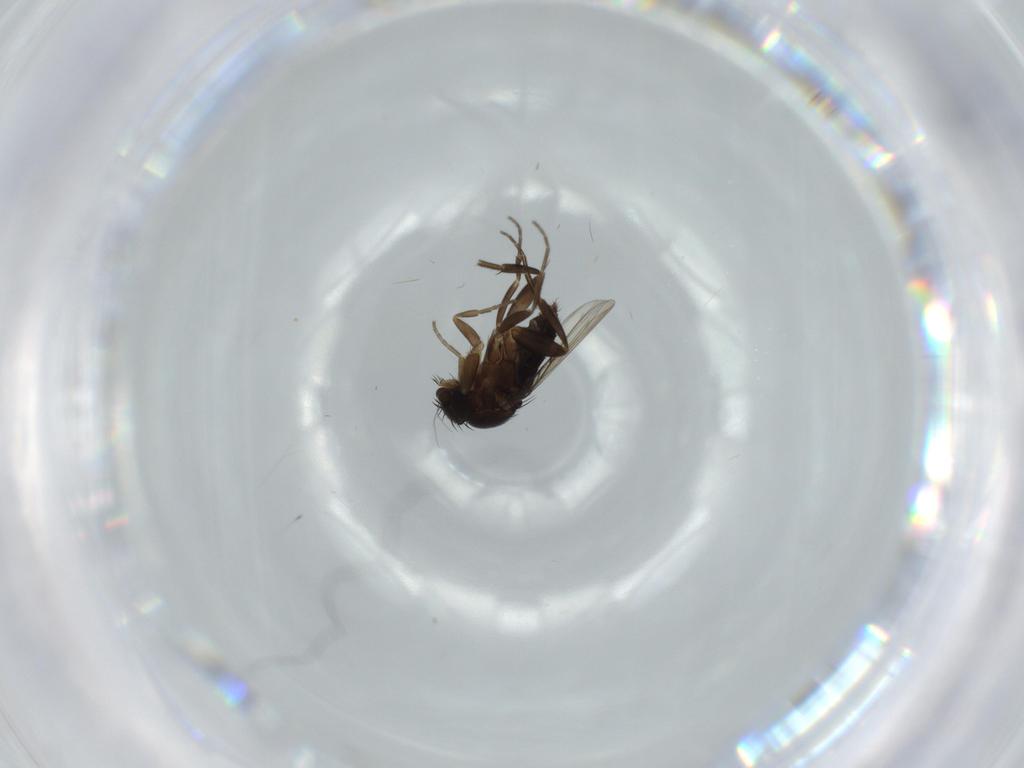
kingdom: Animalia
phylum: Arthropoda
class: Insecta
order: Diptera
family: Phoridae
